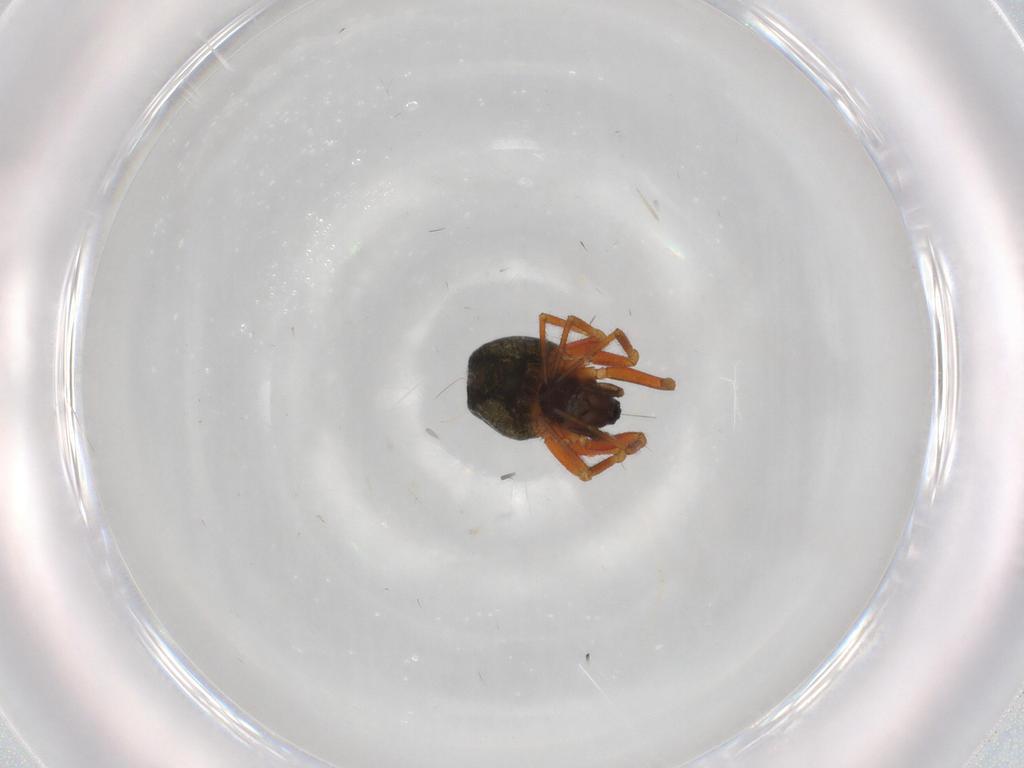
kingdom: Animalia
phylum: Arthropoda
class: Arachnida
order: Araneae
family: Linyphiidae
